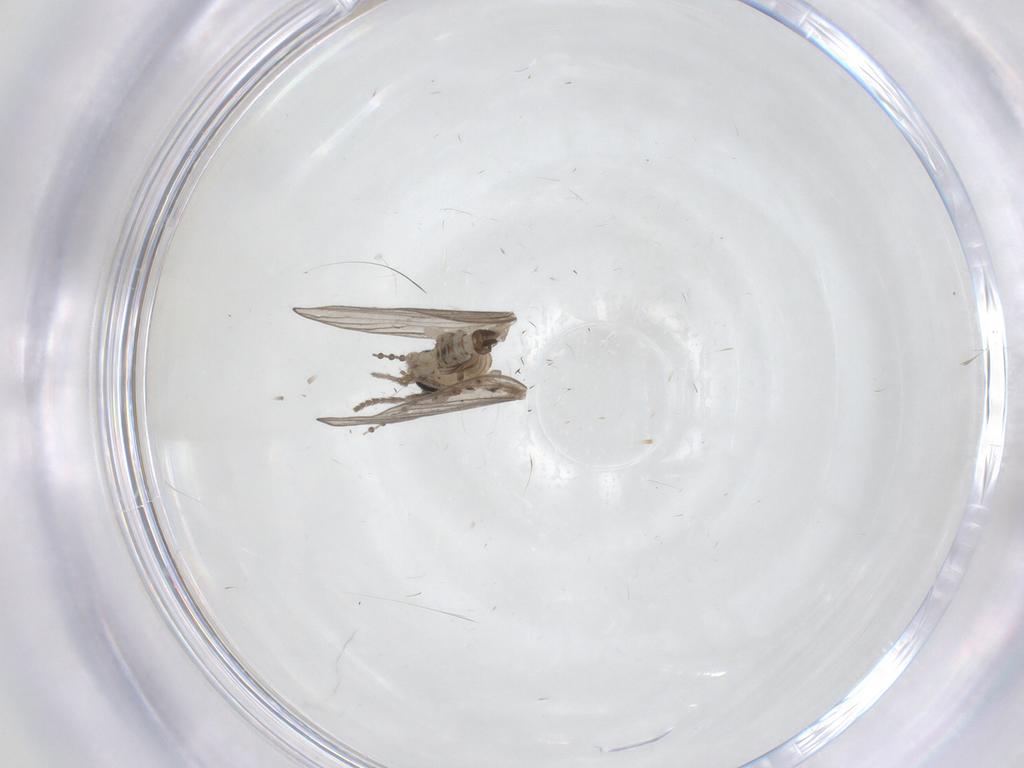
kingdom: Animalia
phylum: Arthropoda
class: Insecta
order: Diptera
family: Psychodidae
